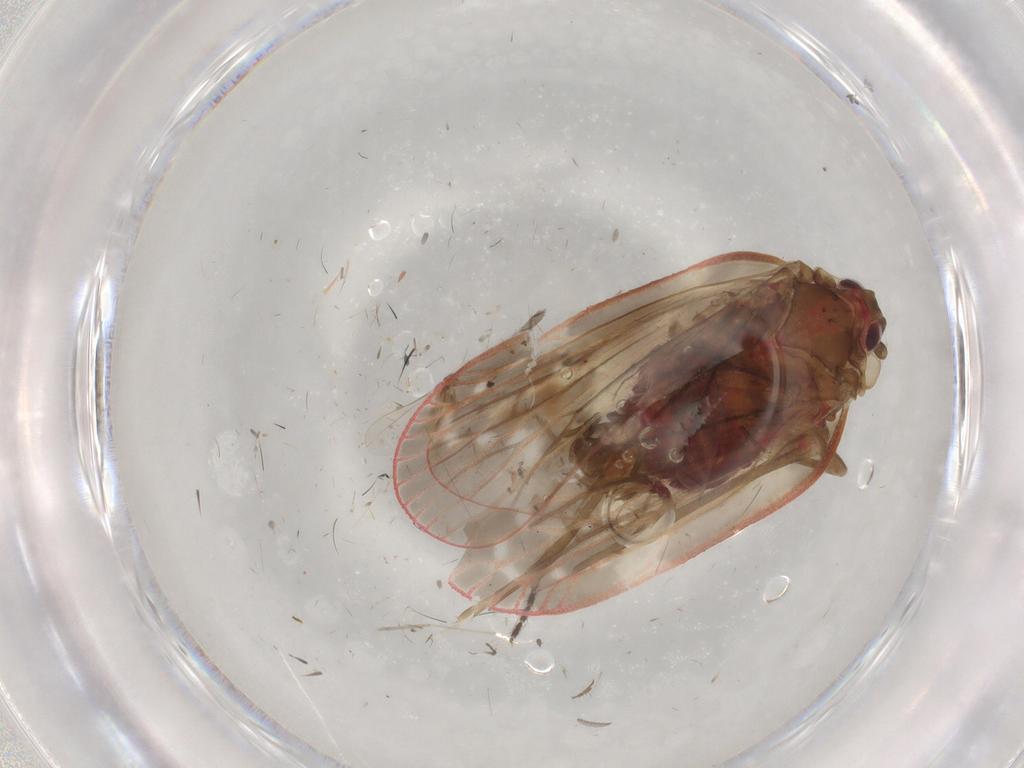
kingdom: Animalia
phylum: Arthropoda
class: Insecta
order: Hemiptera
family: Achilidae
